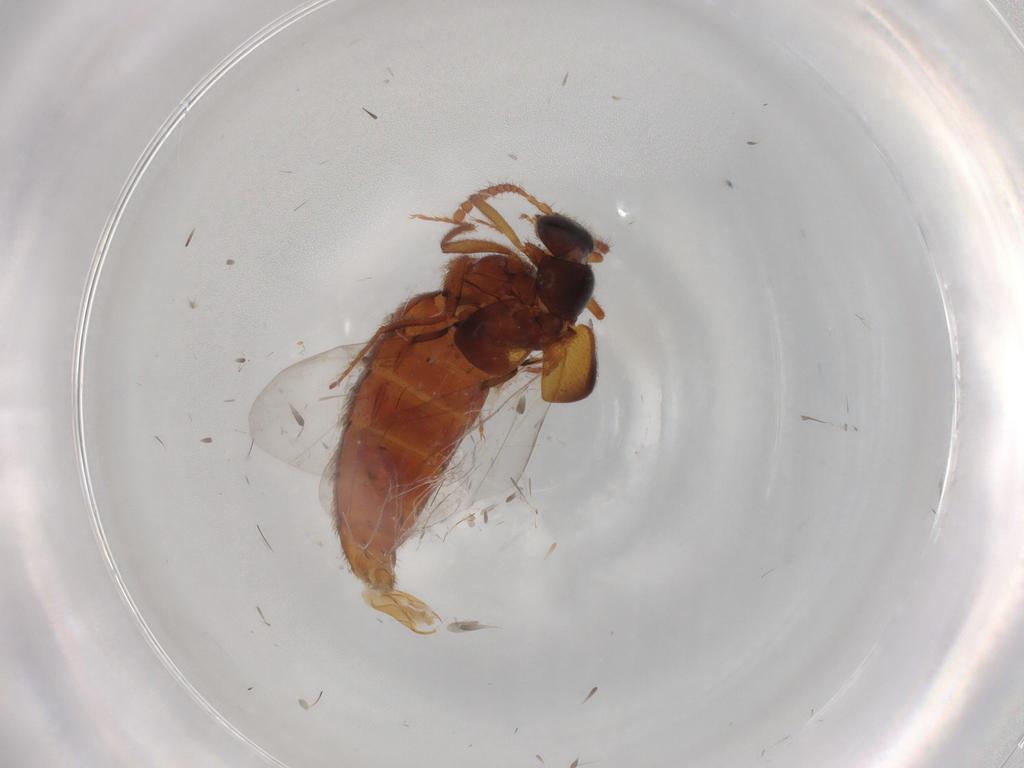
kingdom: Animalia
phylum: Arthropoda
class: Insecta
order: Coleoptera
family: Staphylinidae
